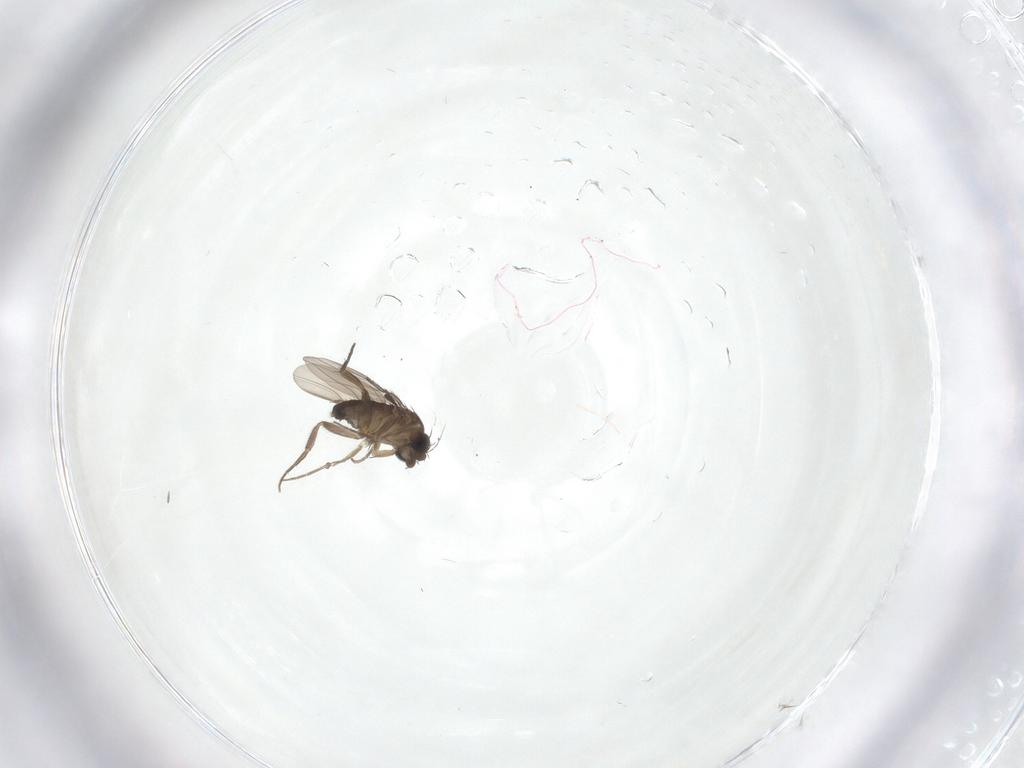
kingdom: Animalia
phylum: Arthropoda
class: Insecta
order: Diptera
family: Phoridae
